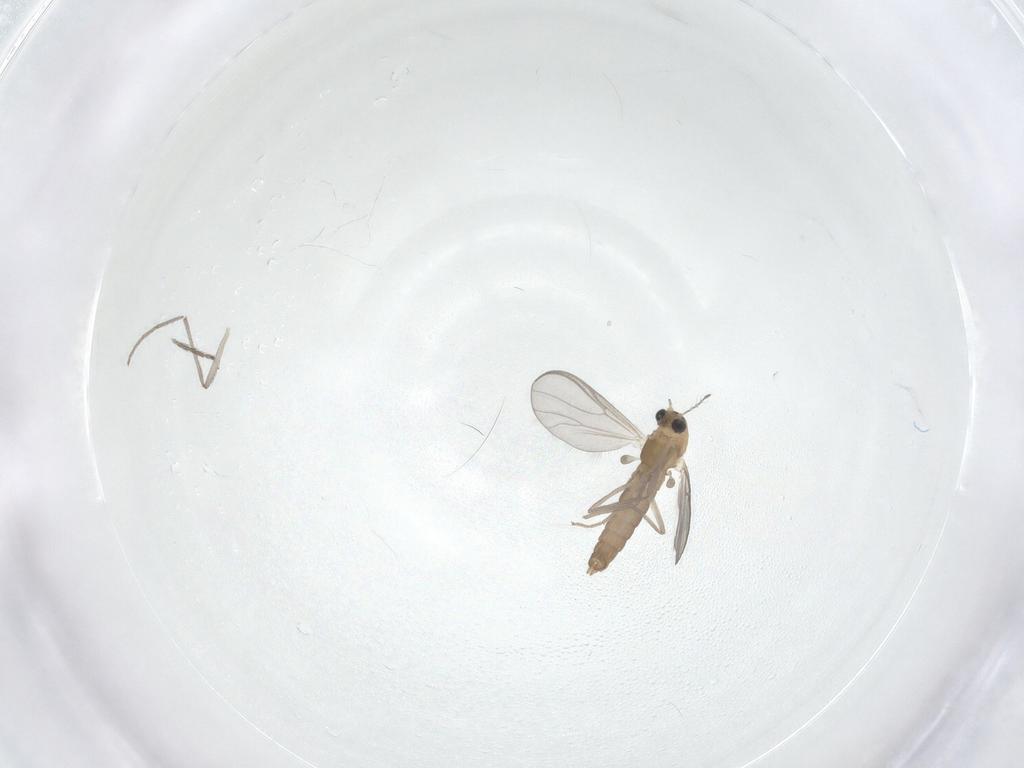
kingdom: Animalia
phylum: Arthropoda
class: Insecta
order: Diptera
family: Chironomidae
